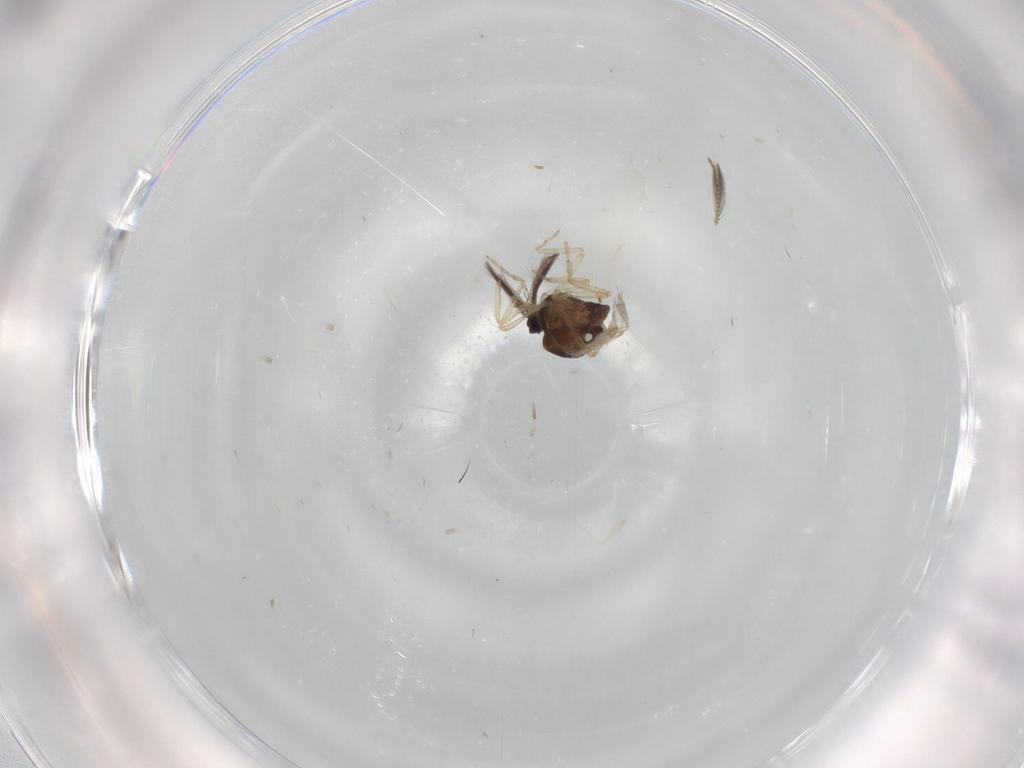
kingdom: Animalia
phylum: Arthropoda
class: Insecta
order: Diptera
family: Ceratopogonidae
